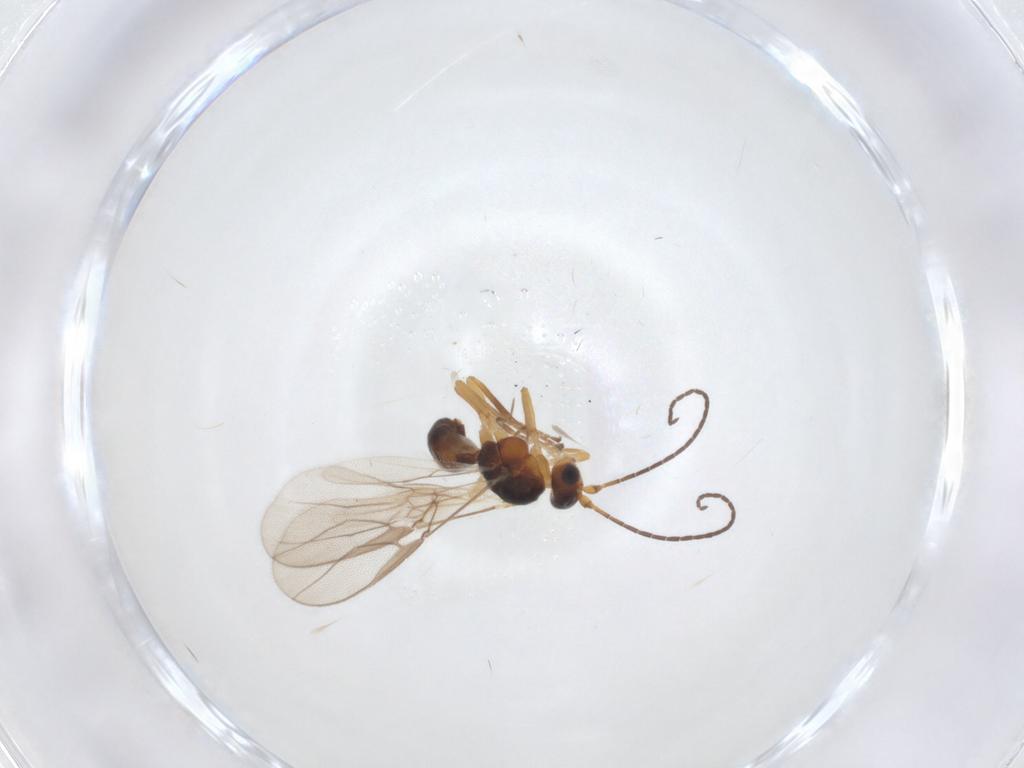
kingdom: Animalia
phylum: Arthropoda
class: Insecta
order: Hymenoptera
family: Braconidae
